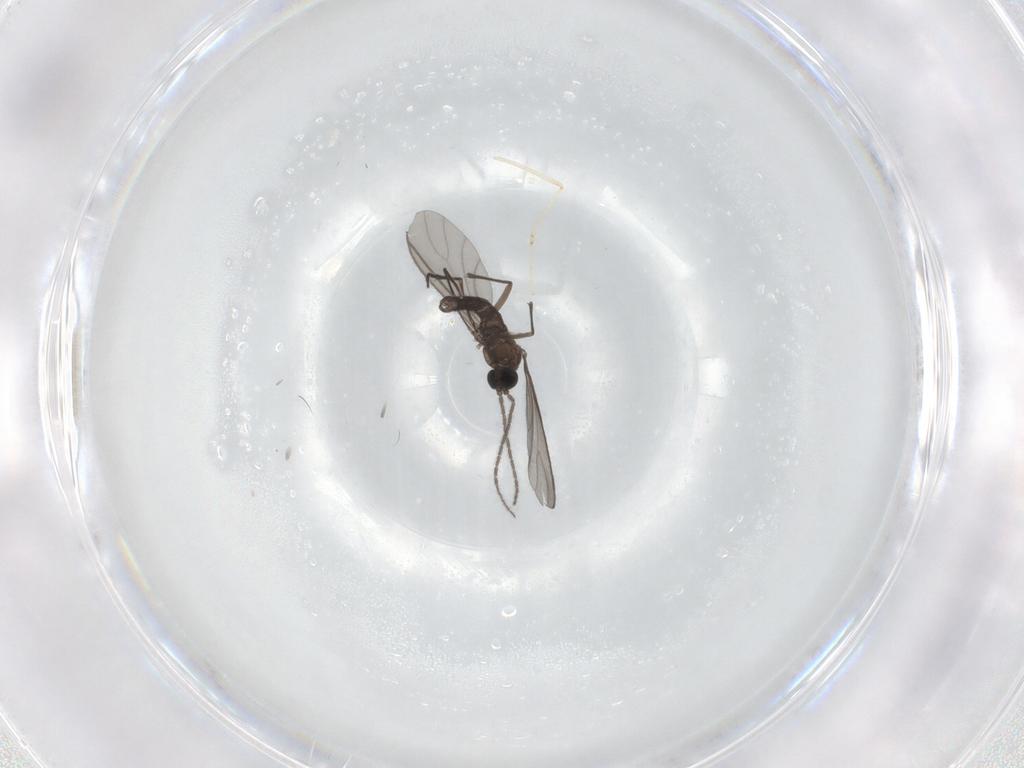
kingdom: Animalia
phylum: Arthropoda
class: Insecta
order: Diptera
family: Sciaridae
